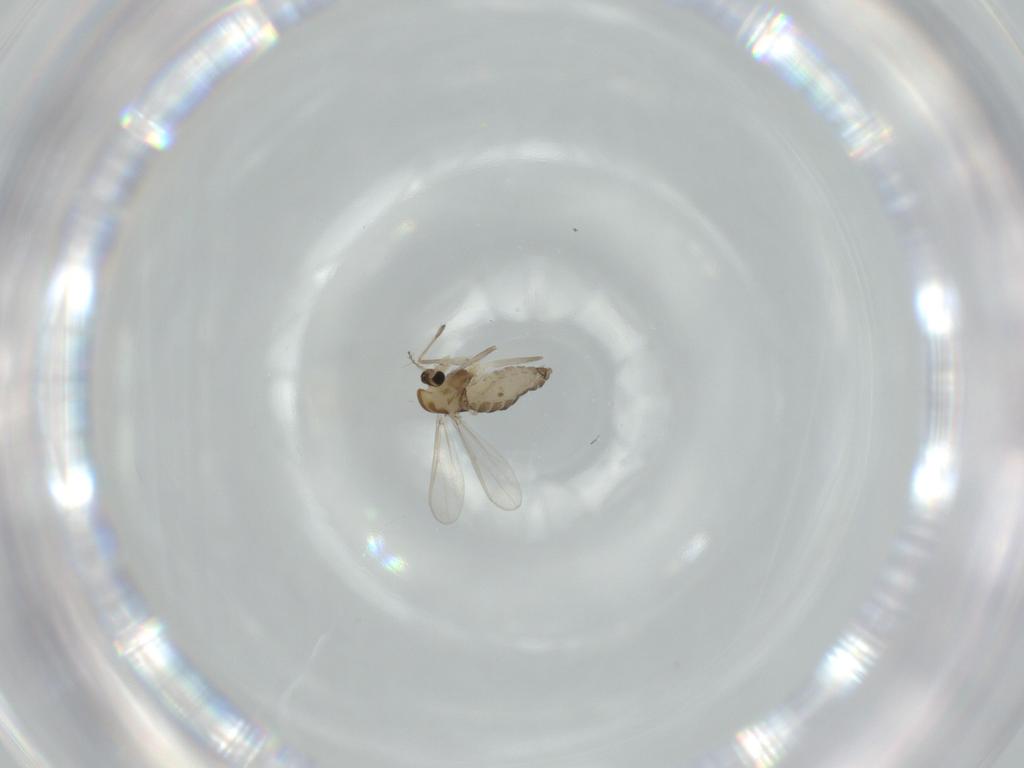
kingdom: Animalia
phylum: Arthropoda
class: Insecta
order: Diptera
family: Chironomidae
